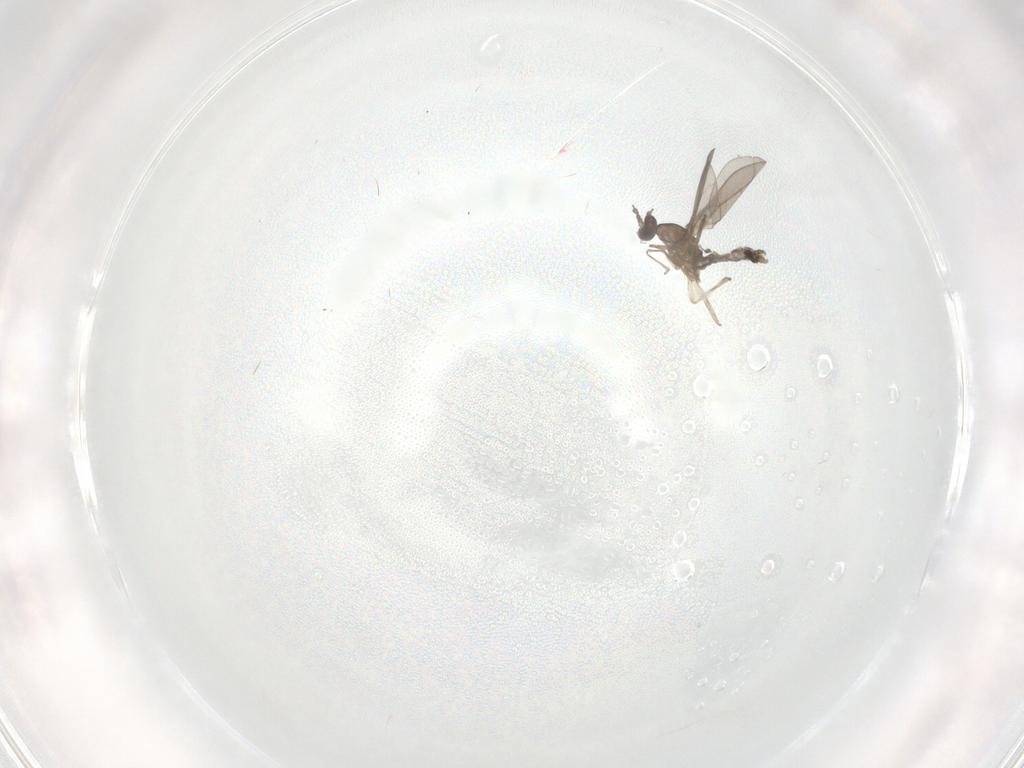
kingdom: Animalia
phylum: Arthropoda
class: Insecta
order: Diptera
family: Cecidomyiidae
